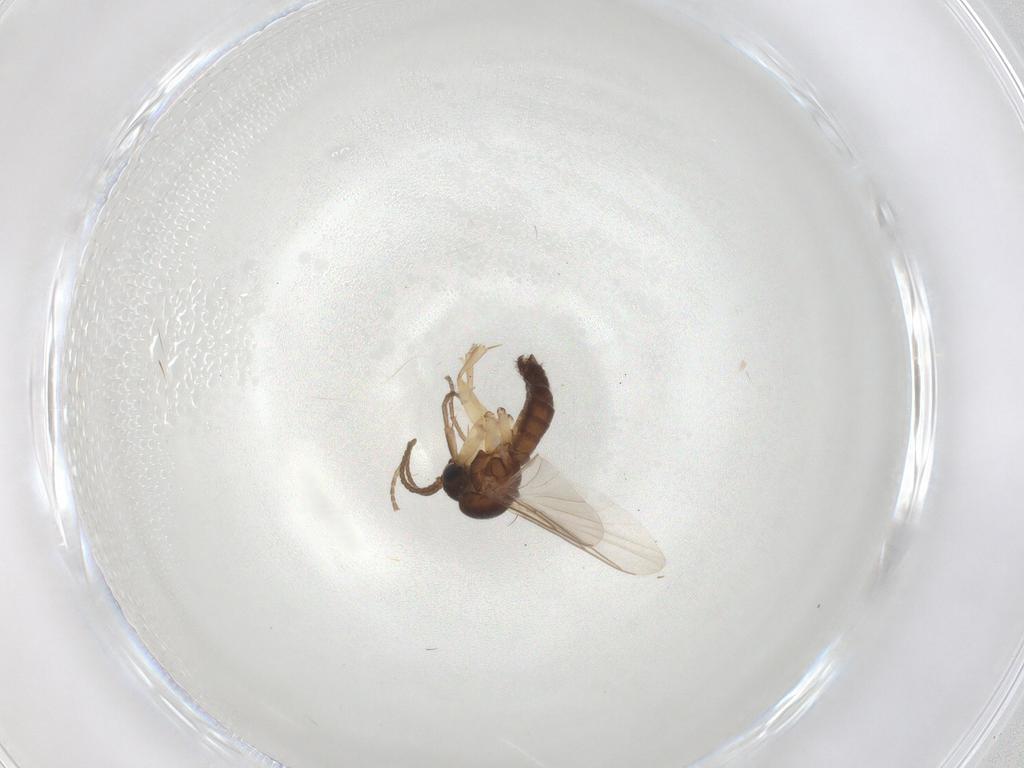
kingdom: Animalia
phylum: Arthropoda
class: Insecta
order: Diptera
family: Mycetophilidae
